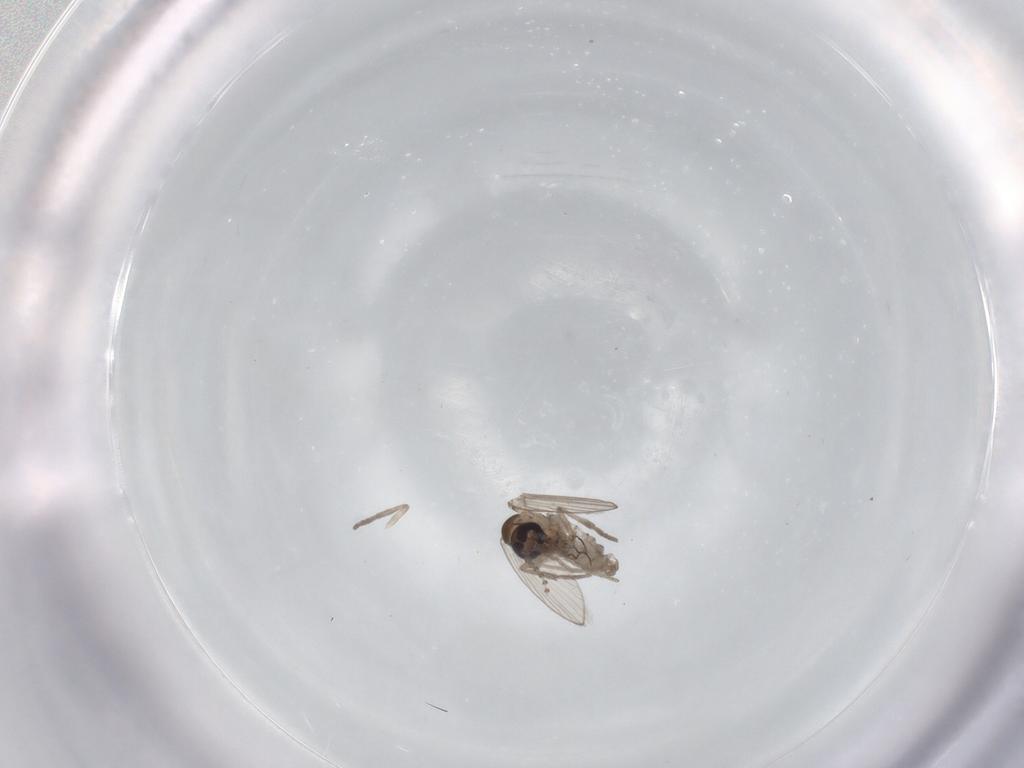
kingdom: Animalia
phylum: Arthropoda
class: Insecta
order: Diptera
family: Psychodidae
